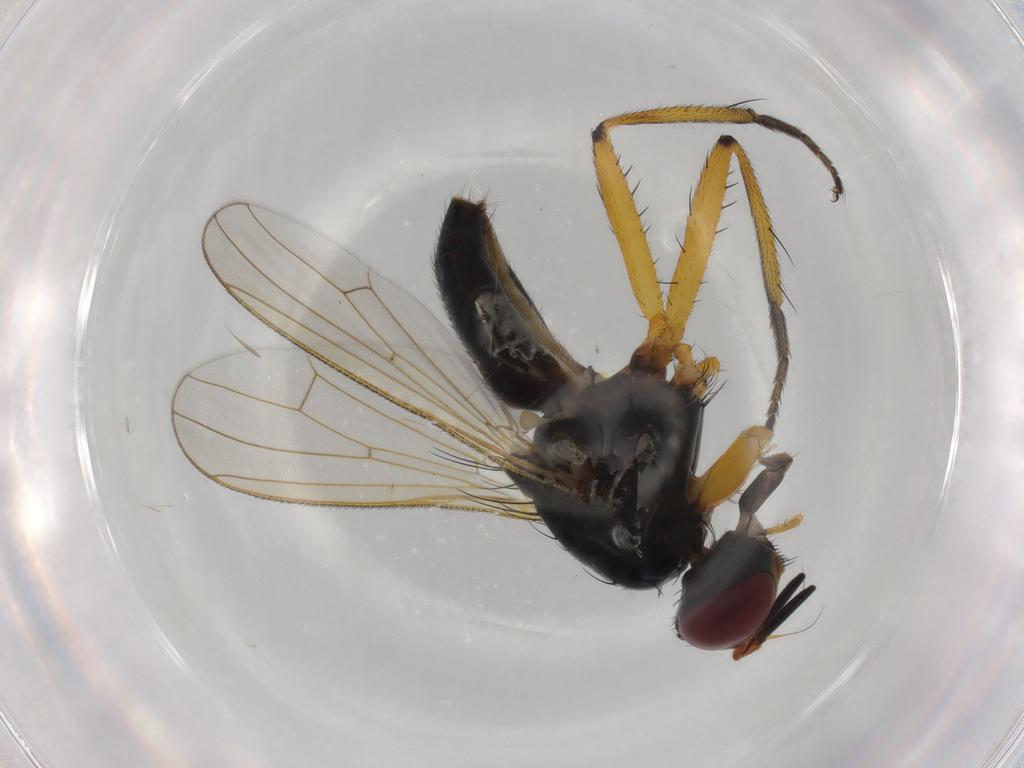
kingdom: Animalia
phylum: Arthropoda
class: Insecta
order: Diptera
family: Muscidae
